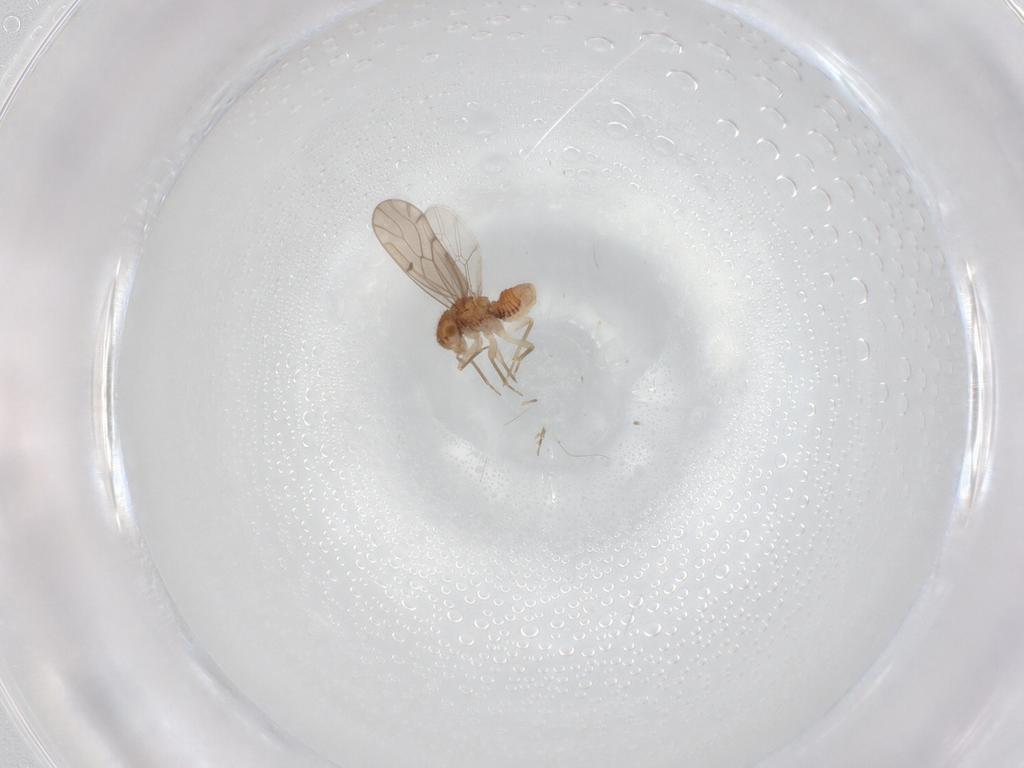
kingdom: Animalia
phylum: Arthropoda
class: Insecta
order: Psocodea
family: Ectopsocidae
